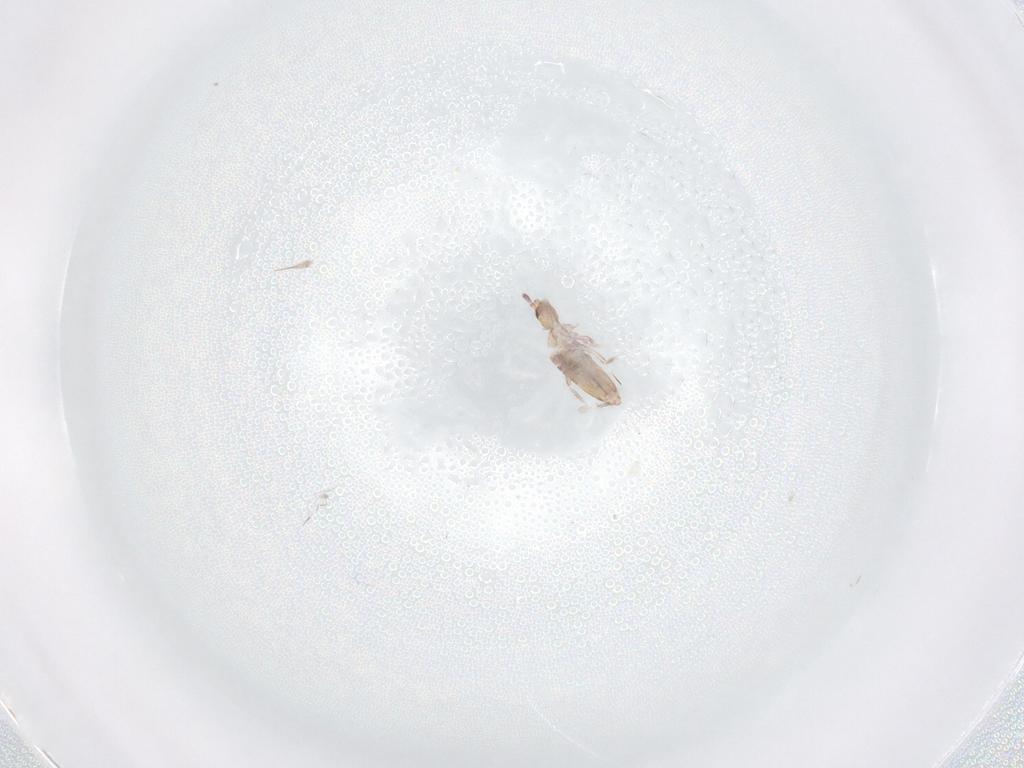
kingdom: Animalia
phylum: Arthropoda
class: Collembola
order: Entomobryomorpha
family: Entomobryidae
